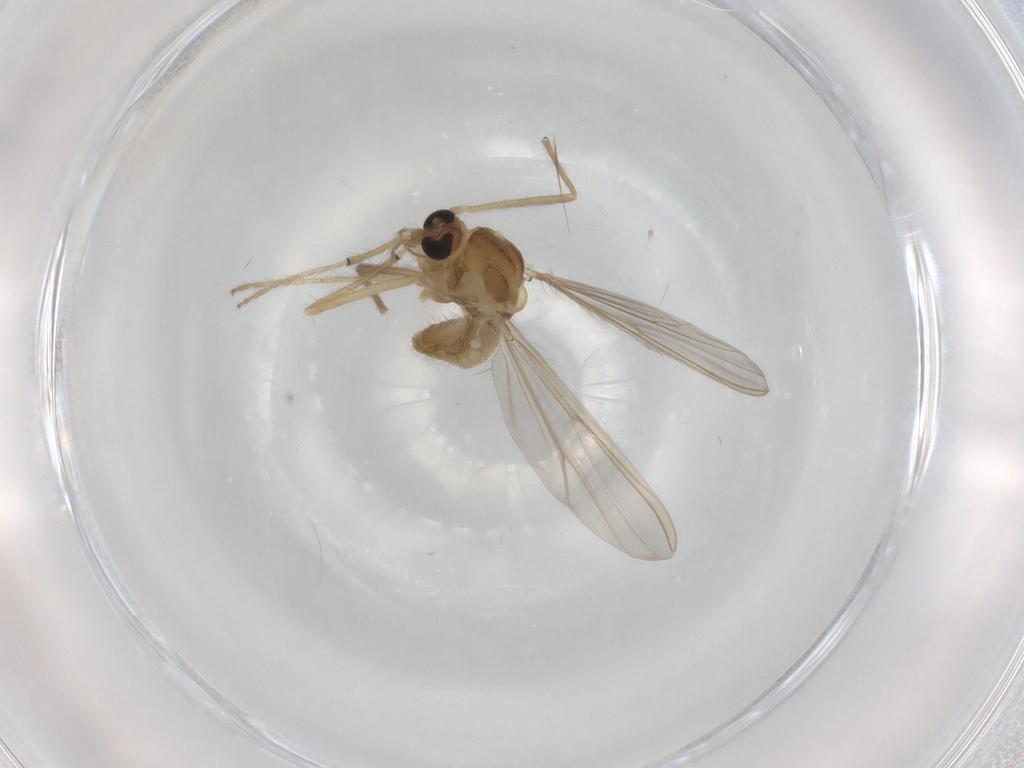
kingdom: Animalia
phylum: Arthropoda
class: Insecta
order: Diptera
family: Chironomidae
